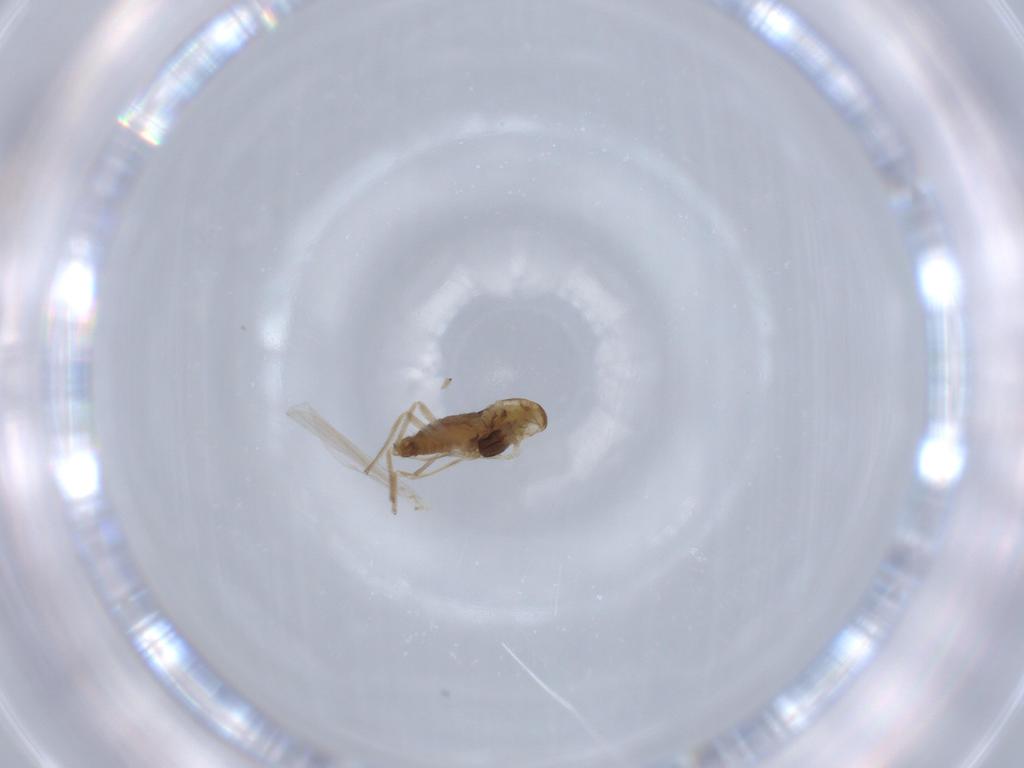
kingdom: Animalia
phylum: Arthropoda
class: Insecta
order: Diptera
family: Chironomidae
